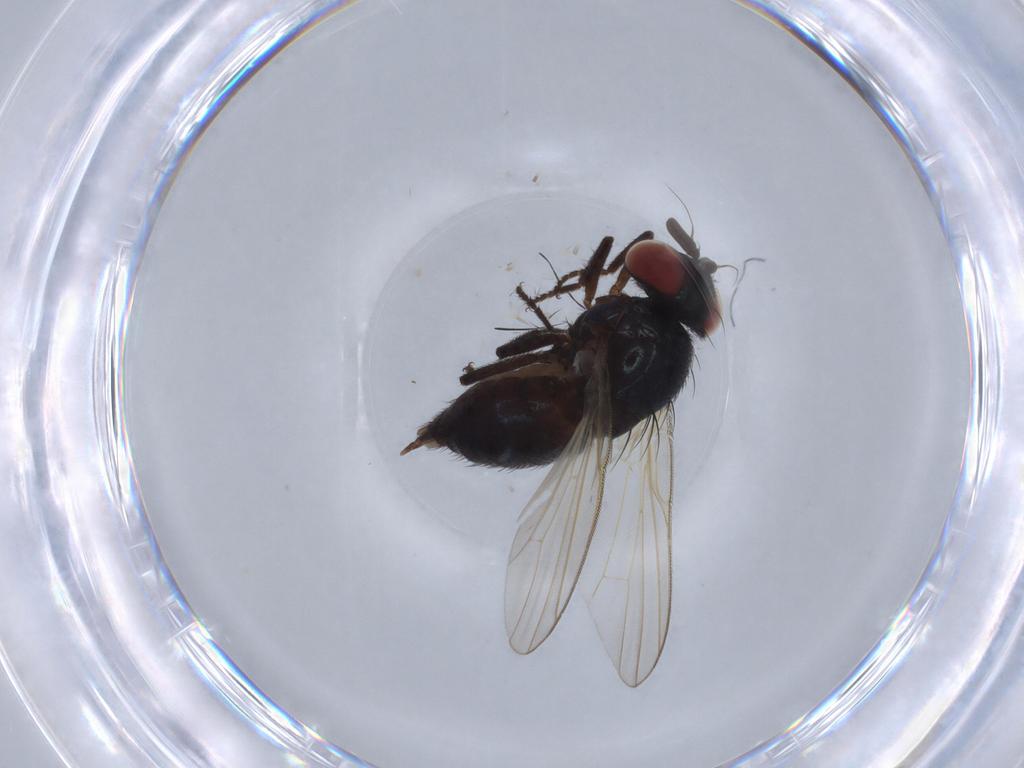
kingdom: Animalia
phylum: Arthropoda
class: Insecta
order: Diptera
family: Lonchaeidae
